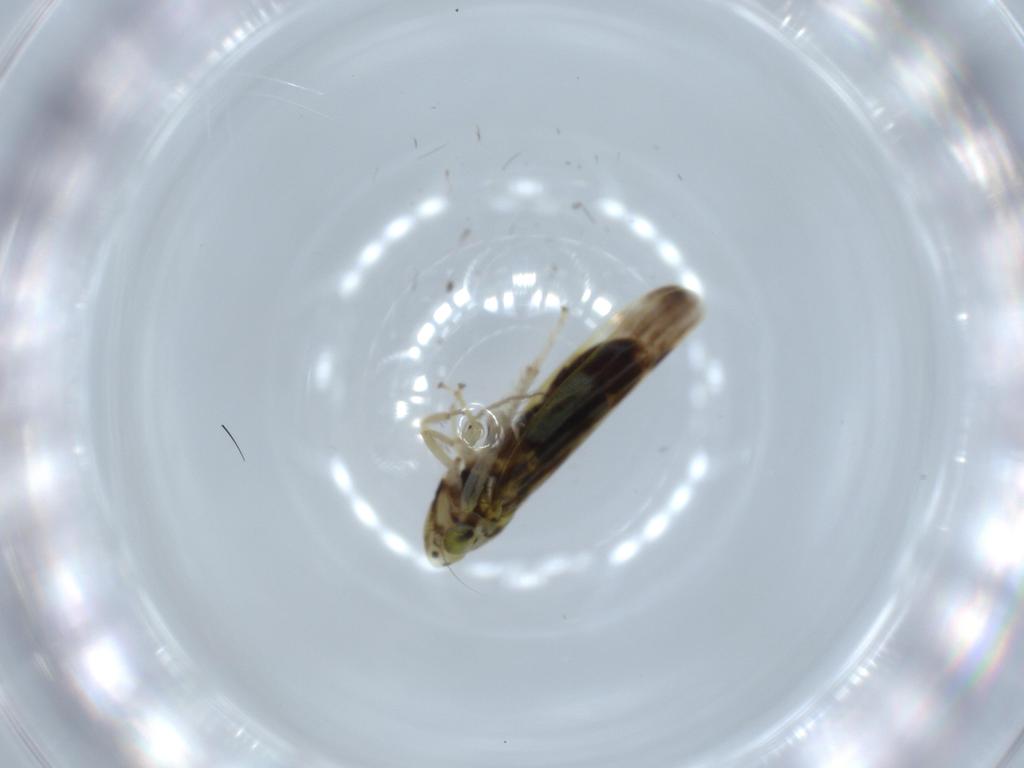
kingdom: Animalia
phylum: Arthropoda
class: Insecta
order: Hemiptera
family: Cicadellidae
